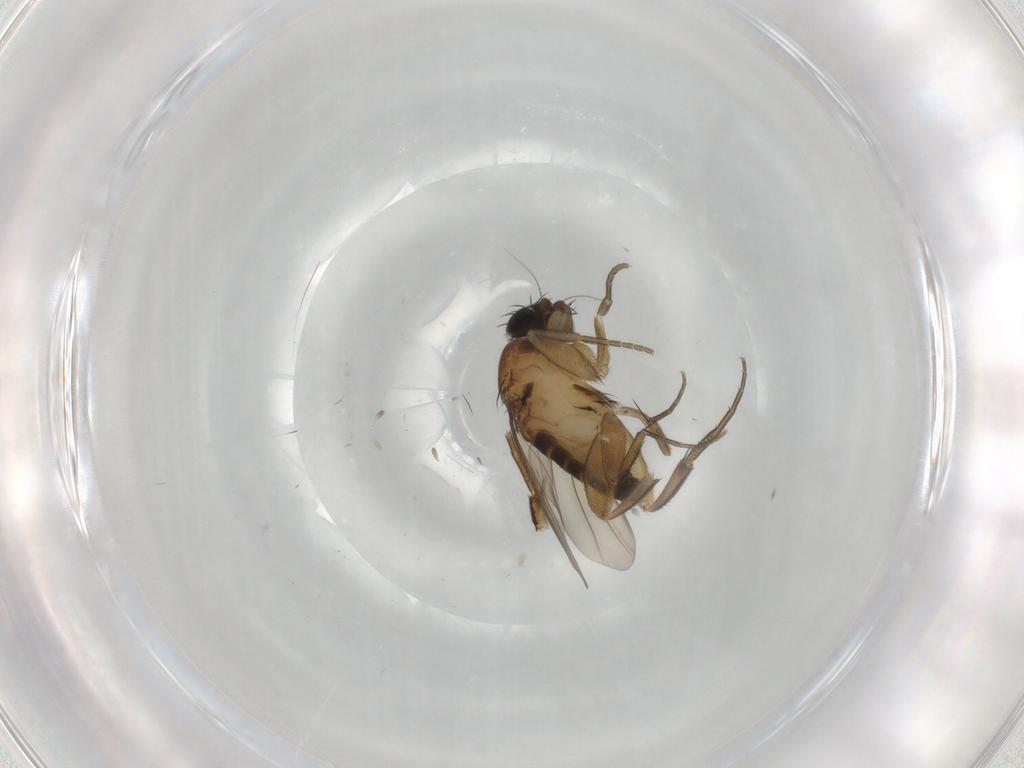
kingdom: Animalia
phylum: Arthropoda
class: Insecta
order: Diptera
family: Phoridae
